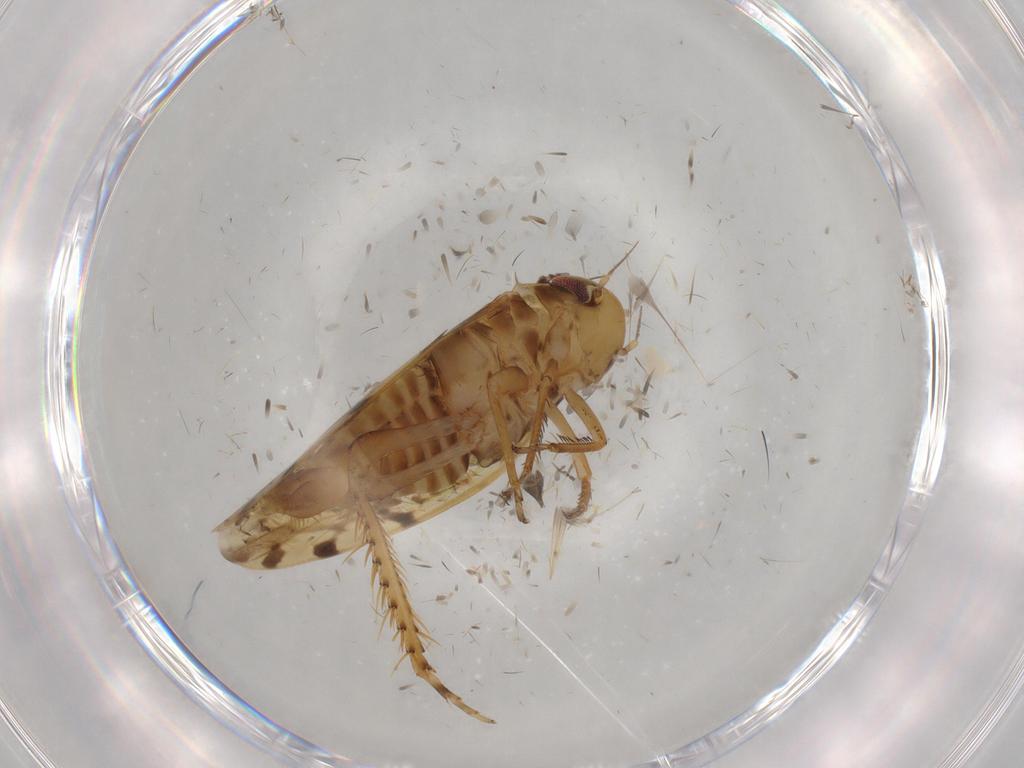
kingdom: Animalia
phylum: Arthropoda
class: Insecta
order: Hemiptera
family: Cicadellidae
